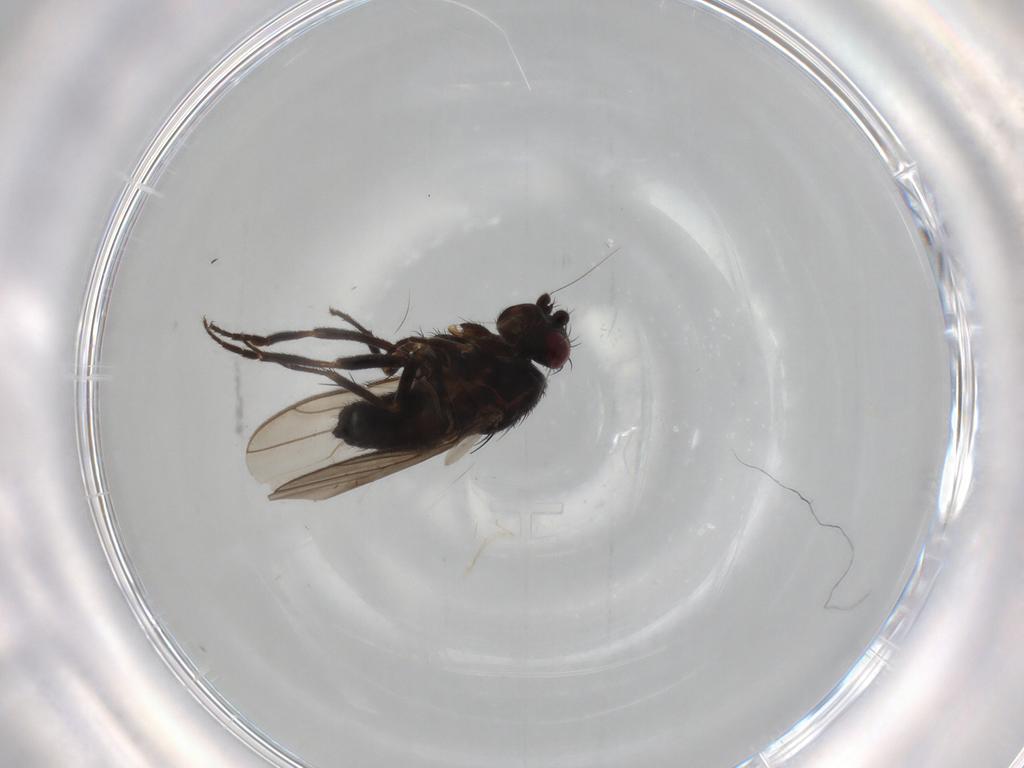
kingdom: Animalia
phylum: Arthropoda
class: Insecta
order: Diptera
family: Sphaeroceridae
